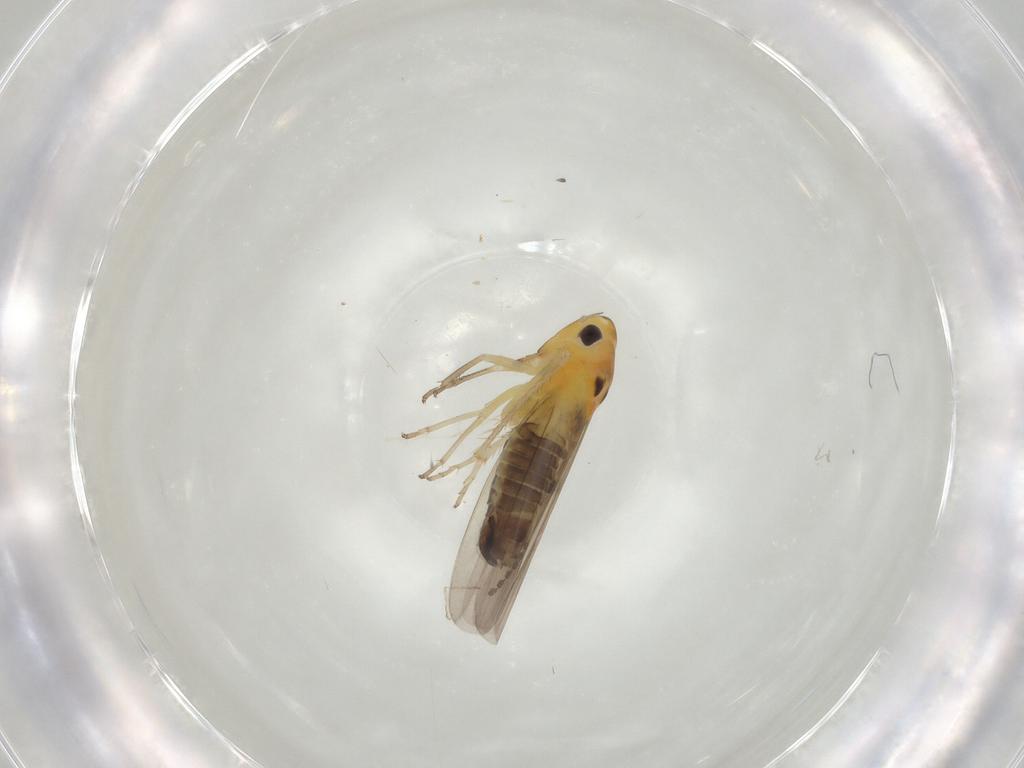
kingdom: Animalia
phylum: Arthropoda
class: Insecta
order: Hemiptera
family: Cicadellidae
